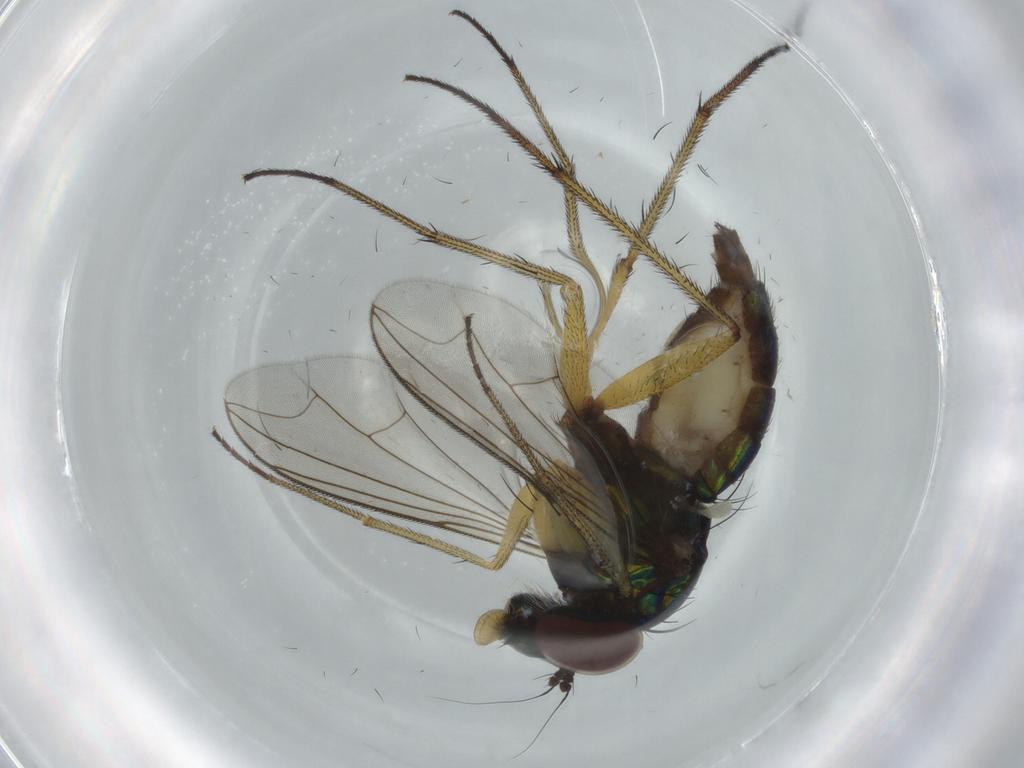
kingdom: Animalia
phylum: Arthropoda
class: Insecta
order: Diptera
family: Dolichopodidae
